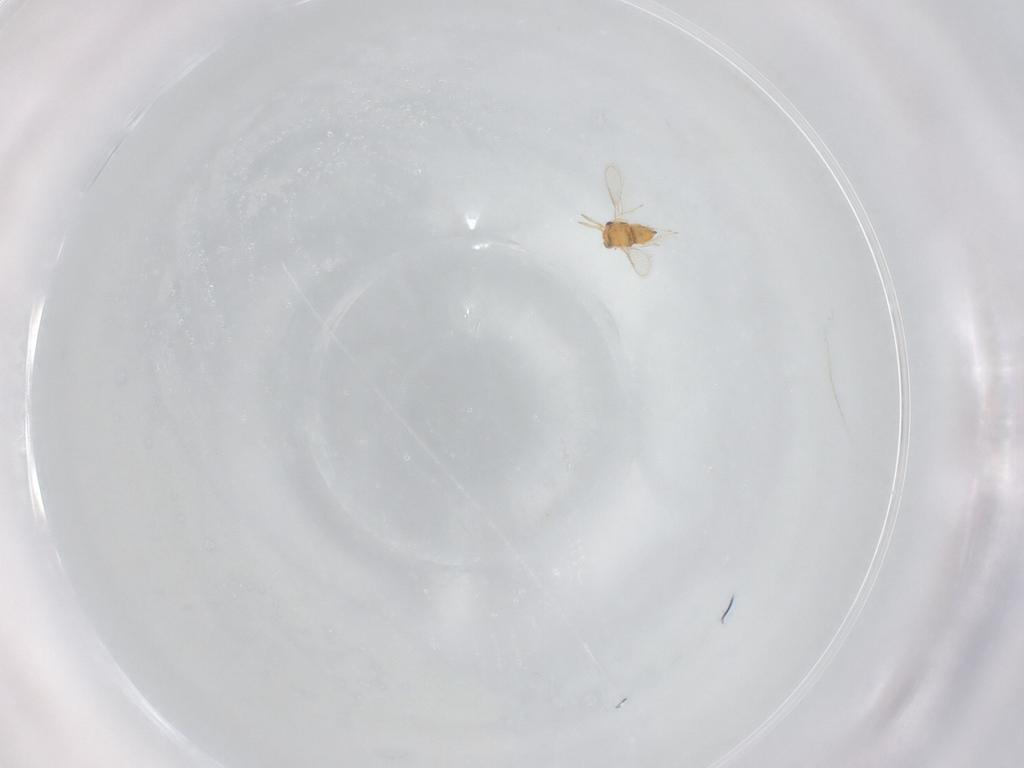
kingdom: Animalia
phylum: Arthropoda
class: Insecta
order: Hymenoptera
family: Aphelinidae
